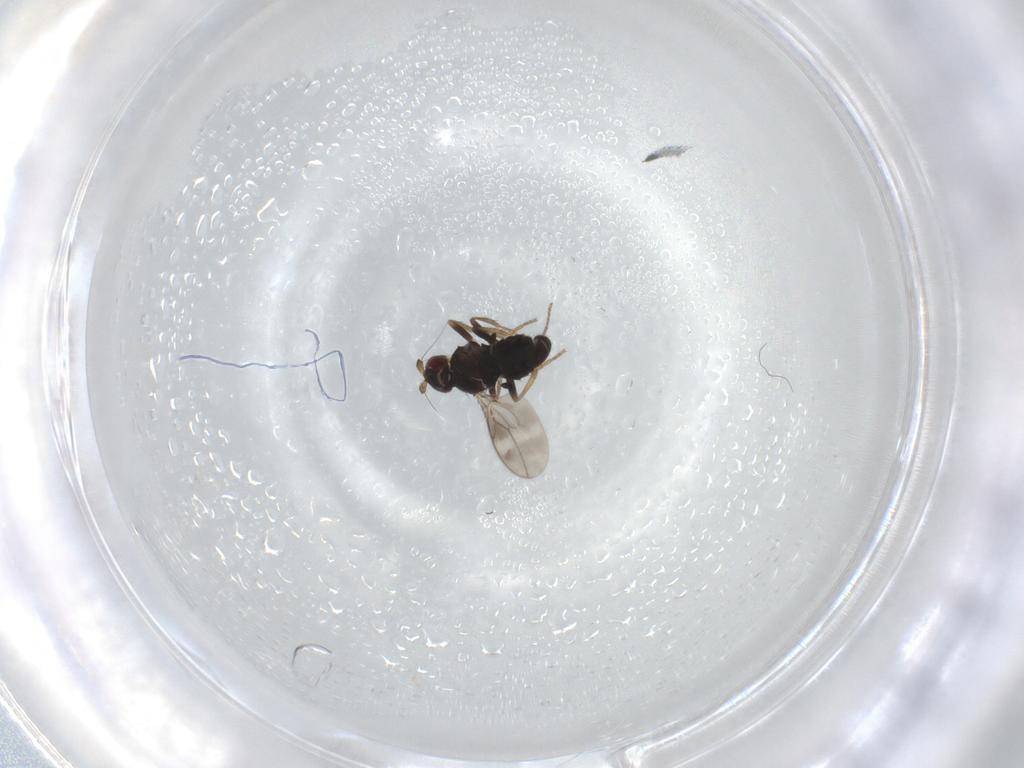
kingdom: Animalia
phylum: Arthropoda
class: Insecta
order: Diptera
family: Sphaeroceridae
